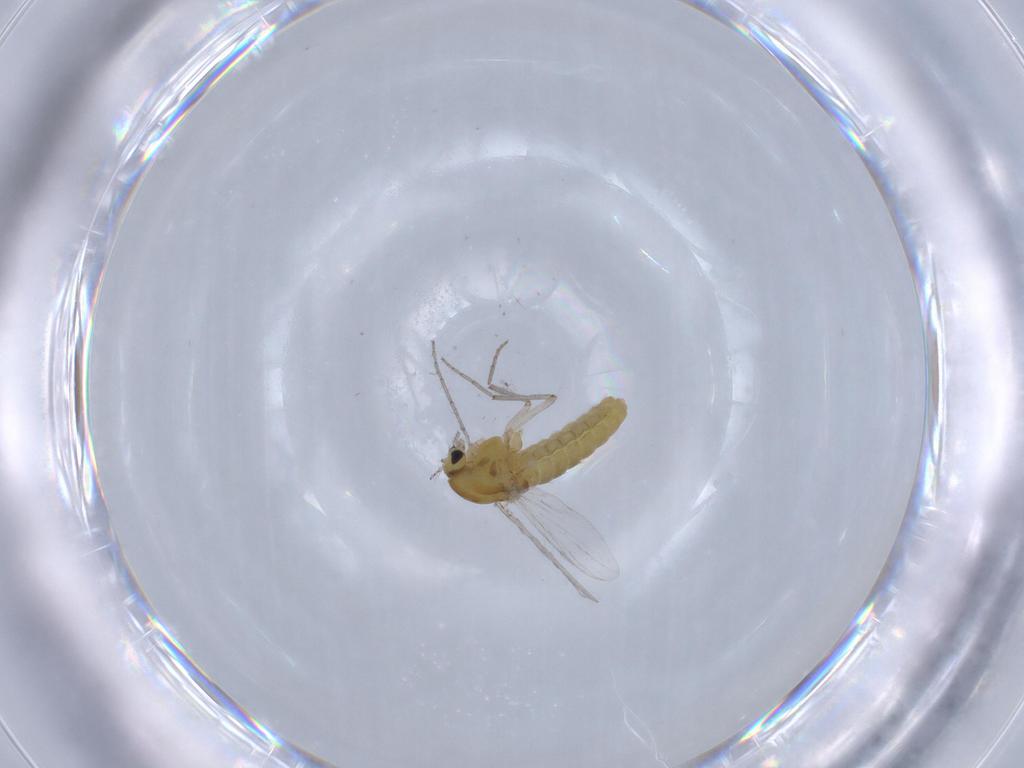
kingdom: Animalia
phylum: Arthropoda
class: Insecta
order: Diptera
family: Chironomidae
